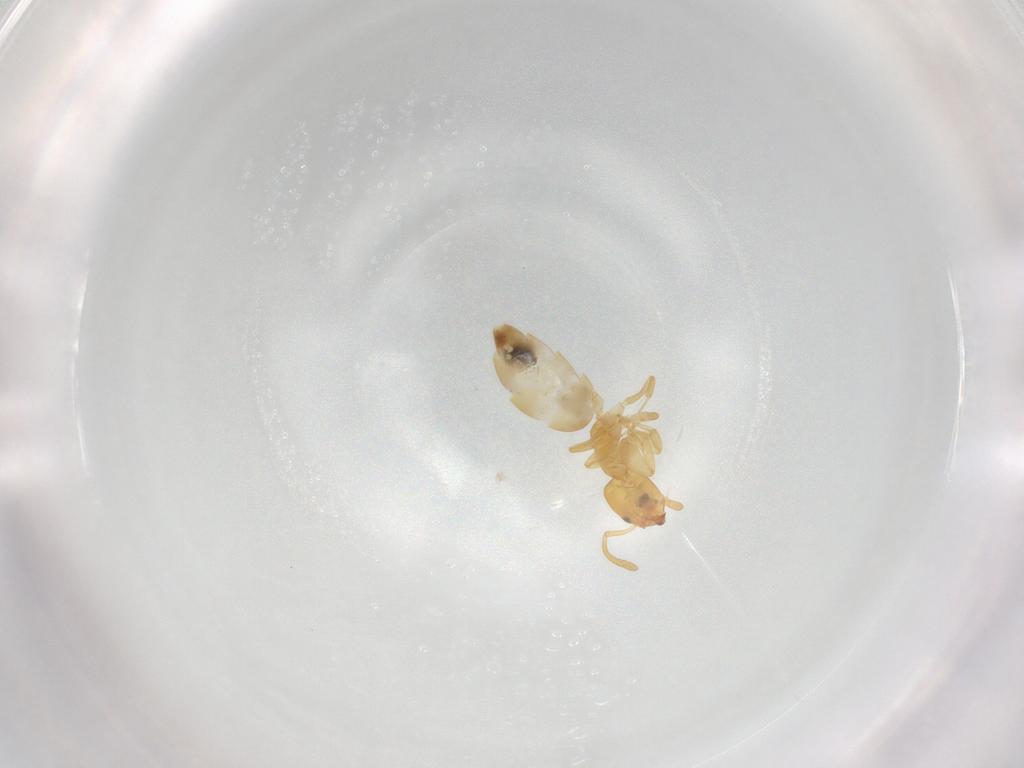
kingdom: Animalia
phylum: Arthropoda
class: Insecta
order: Hymenoptera
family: Formicidae
